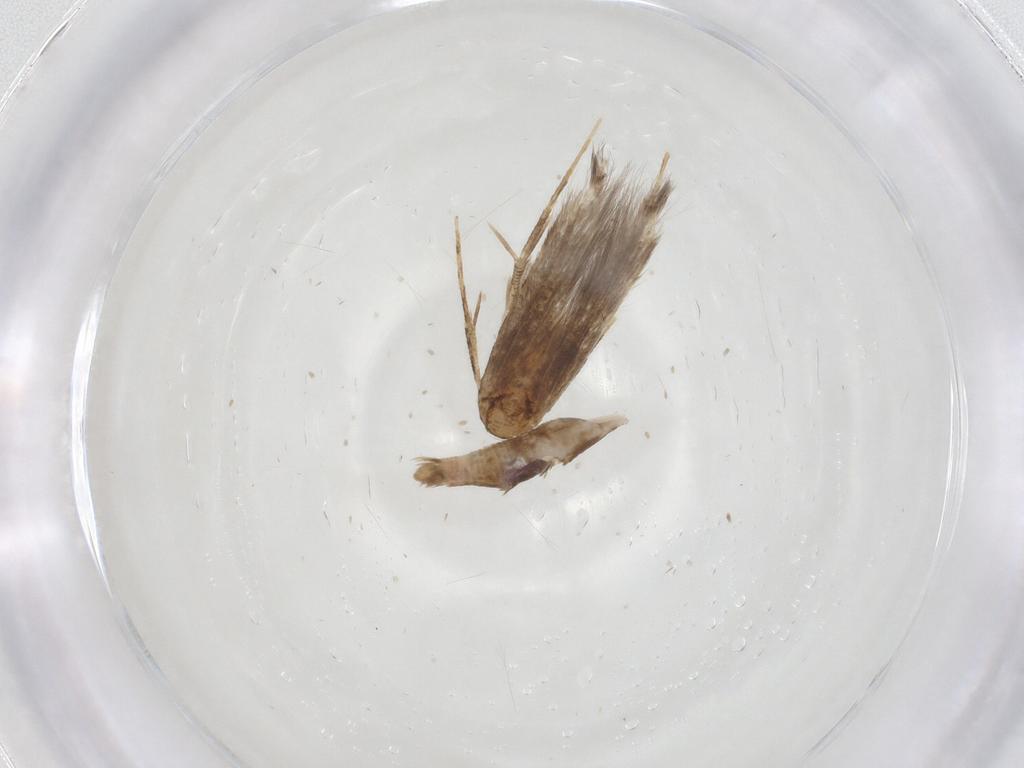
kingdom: Animalia
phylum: Arthropoda
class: Insecta
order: Lepidoptera
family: Cosmopterigidae
